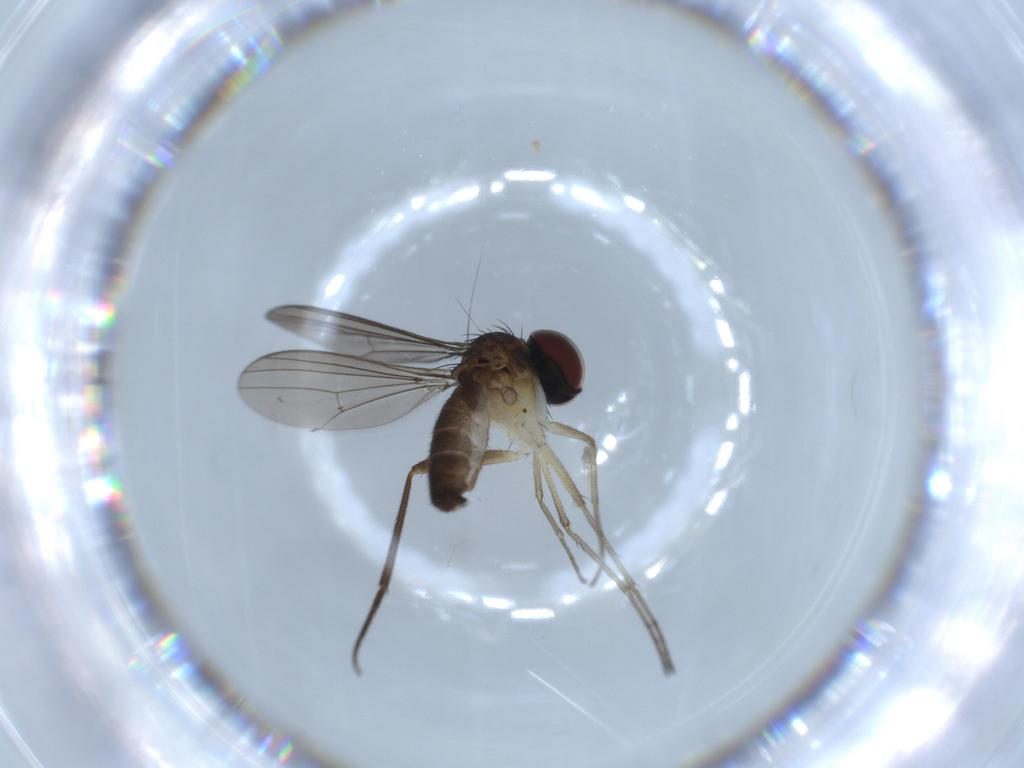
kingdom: Animalia
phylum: Arthropoda
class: Insecta
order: Diptera
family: Dolichopodidae
